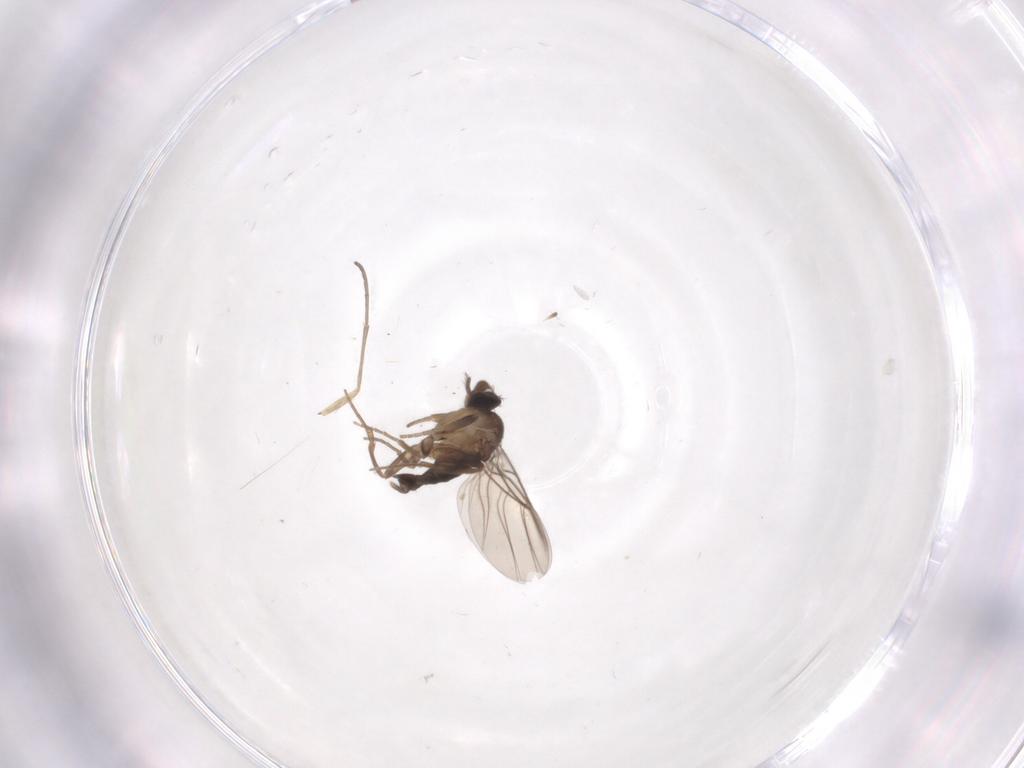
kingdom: Animalia
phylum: Arthropoda
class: Insecta
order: Diptera
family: Phoridae
